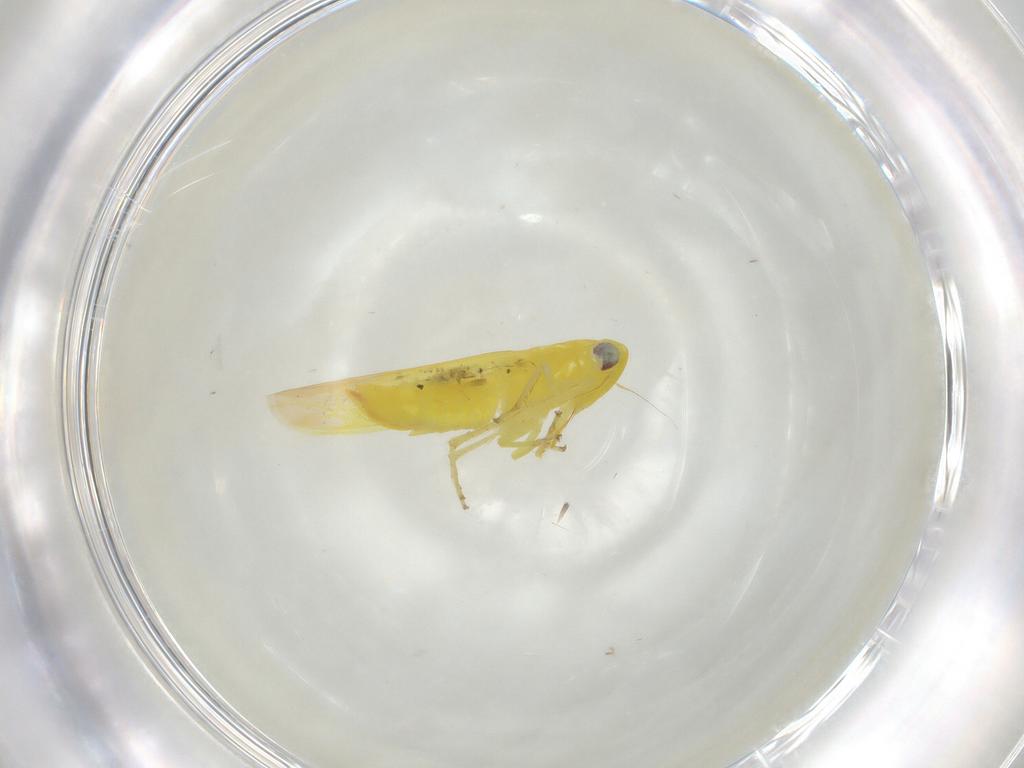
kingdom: Animalia
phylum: Arthropoda
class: Insecta
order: Hemiptera
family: Cicadellidae
